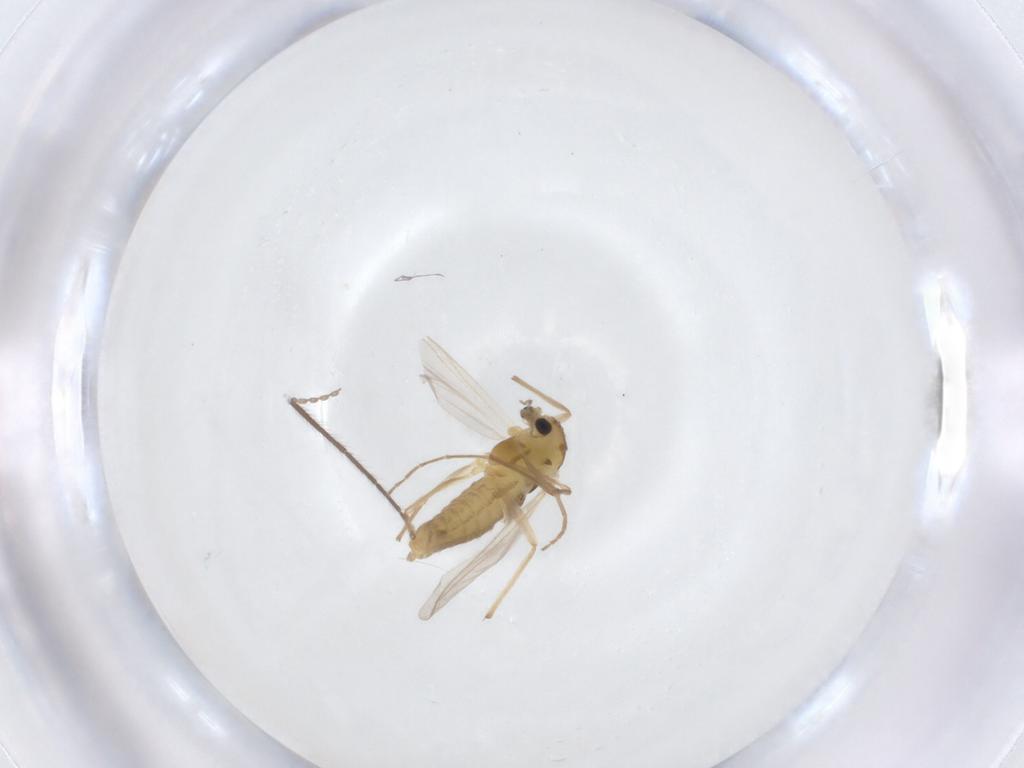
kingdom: Animalia
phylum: Arthropoda
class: Insecta
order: Diptera
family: Chironomidae
